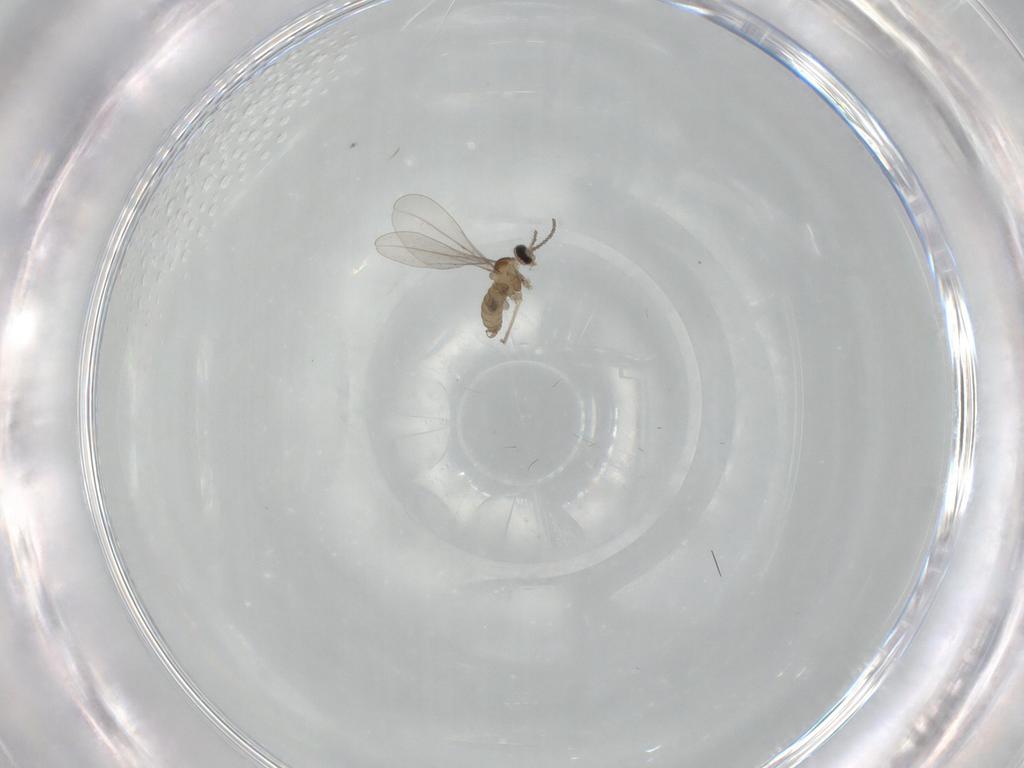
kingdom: Animalia
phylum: Arthropoda
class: Insecta
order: Diptera
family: Cecidomyiidae
